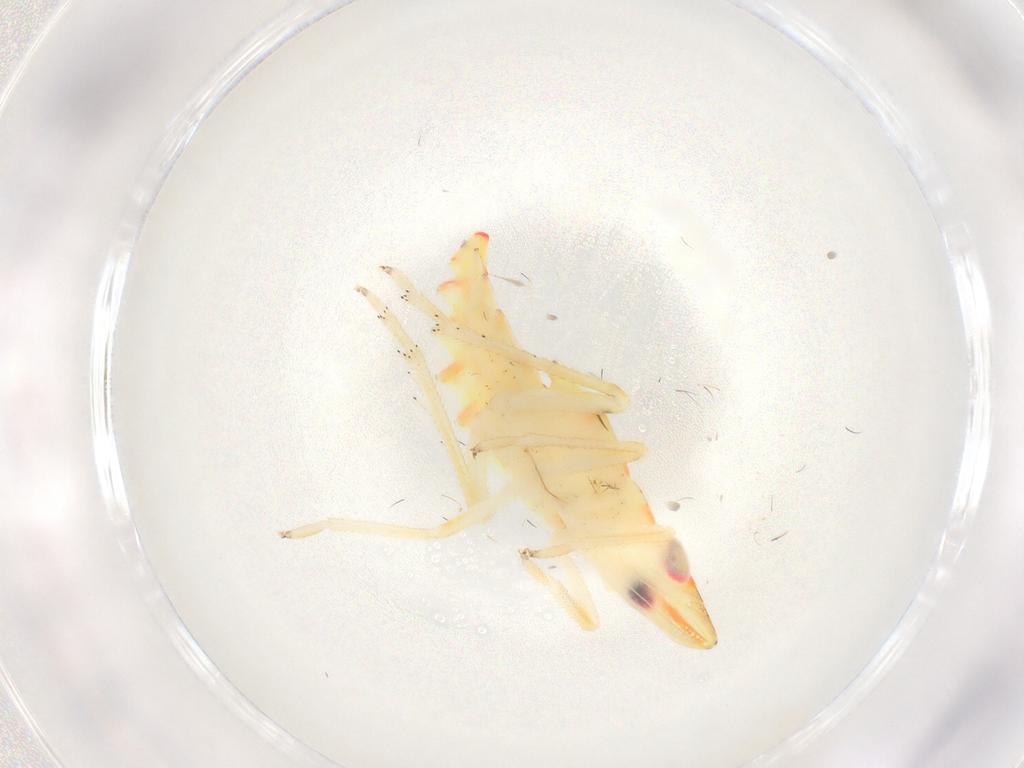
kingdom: Animalia
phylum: Arthropoda
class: Insecta
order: Hemiptera
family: Tropiduchidae
